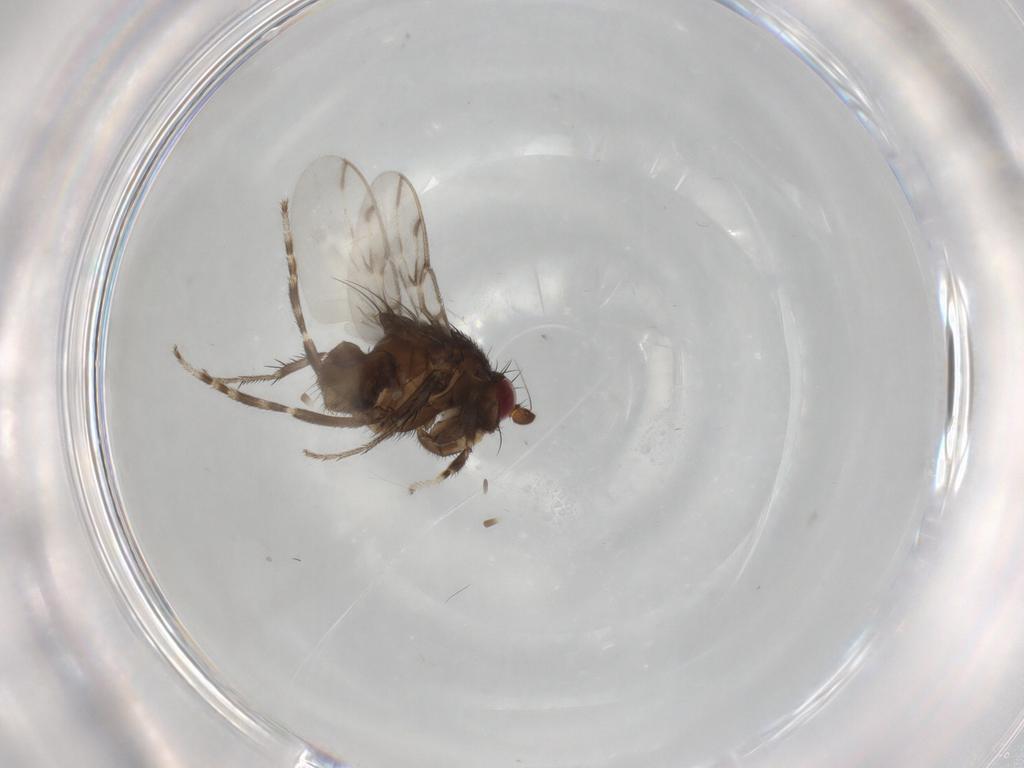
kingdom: Animalia
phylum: Arthropoda
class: Insecta
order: Diptera
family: Sphaeroceridae
